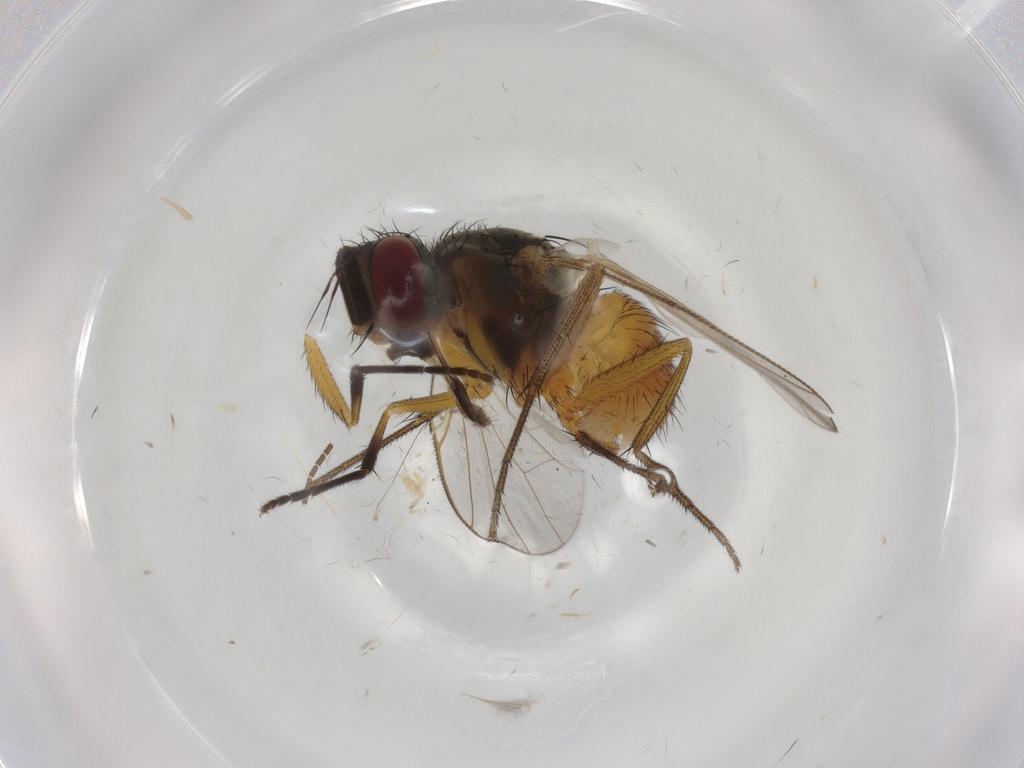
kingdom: Animalia
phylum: Arthropoda
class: Insecta
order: Diptera
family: Muscidae
